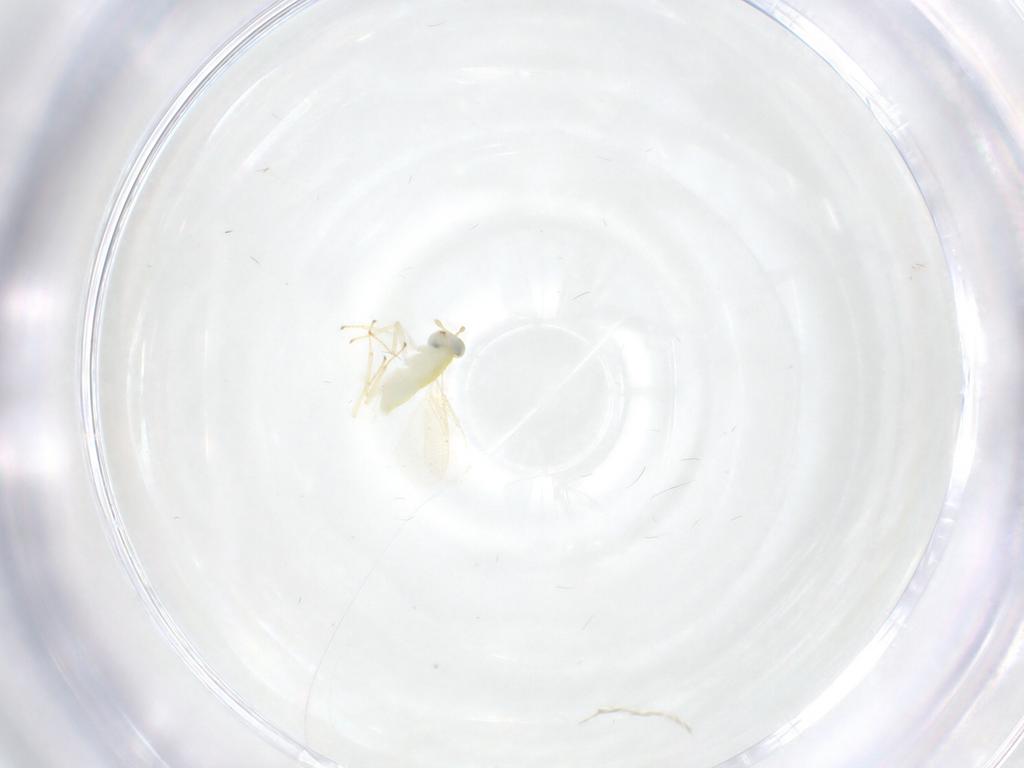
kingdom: Animalia
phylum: Arthropoda
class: Insecta
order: Hymenoptera
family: Aphelinidae
